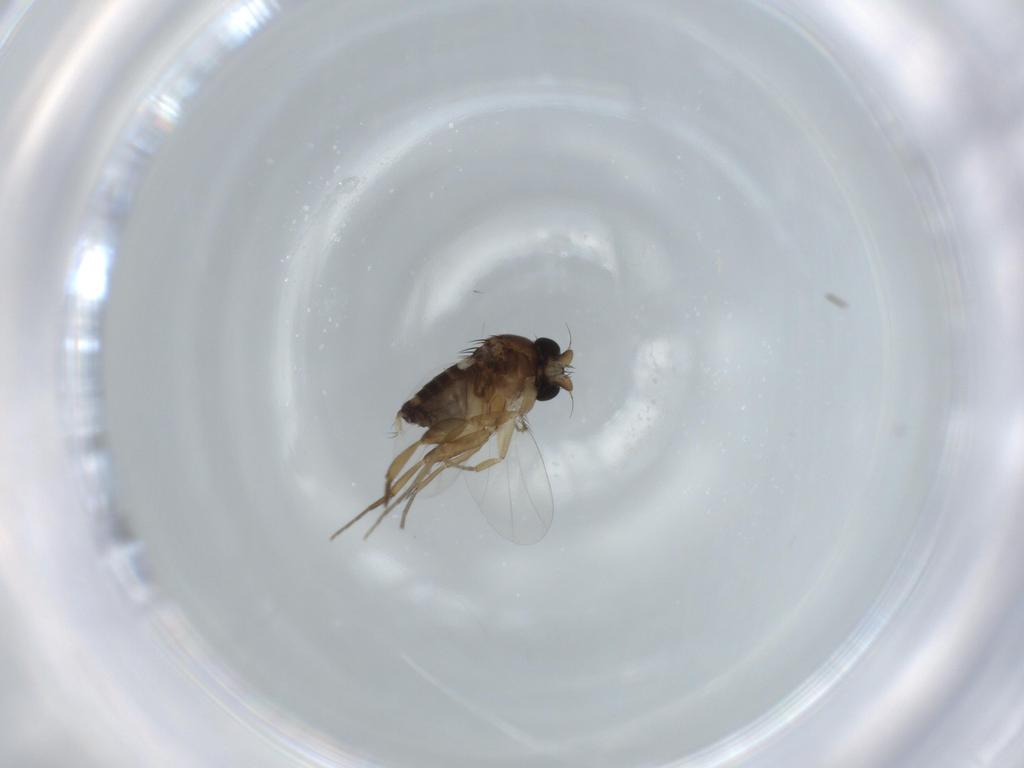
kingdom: Animalia
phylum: Arthropoda
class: Insecta
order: Diptera
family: Phoridae
